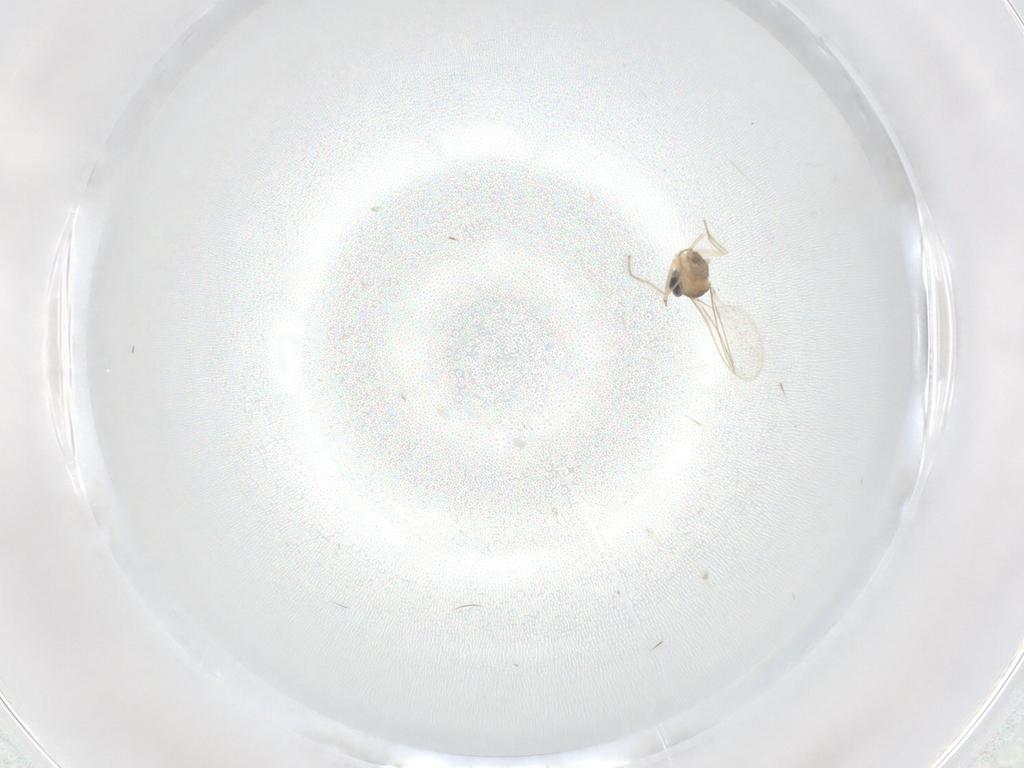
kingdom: Animalia
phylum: Arthropoda
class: Insecta
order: Diptera
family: Cecidomyiidae
